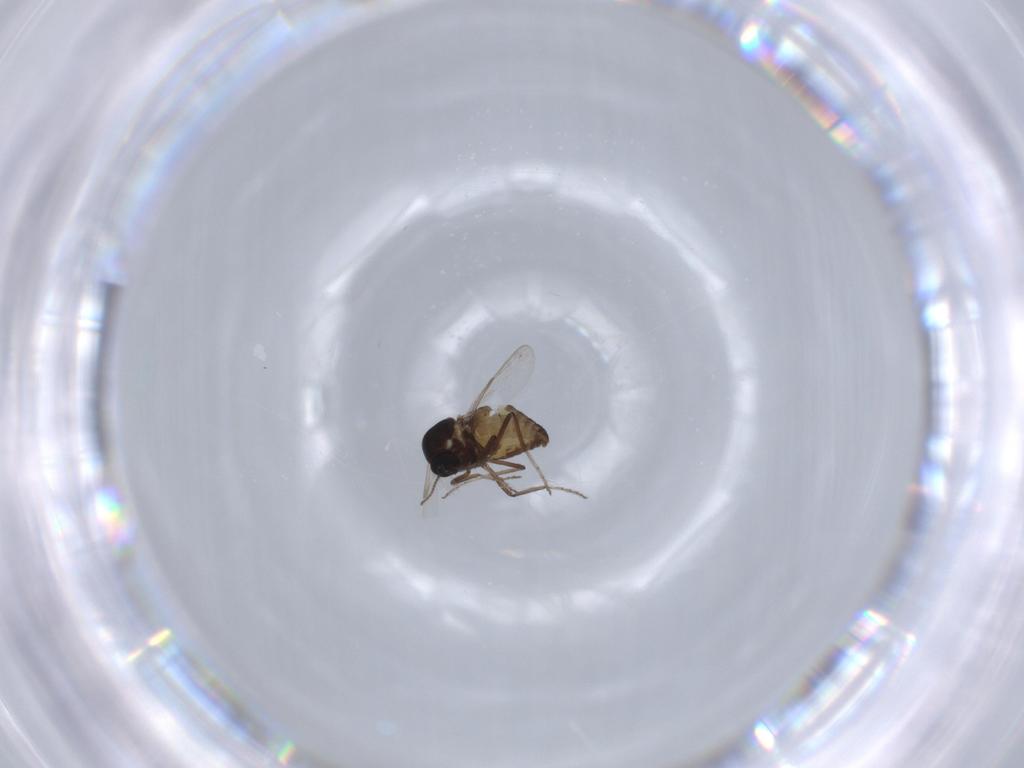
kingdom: Animalia
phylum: Arthropoda
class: Insecta
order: Diptera
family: Ceratopogonidae
